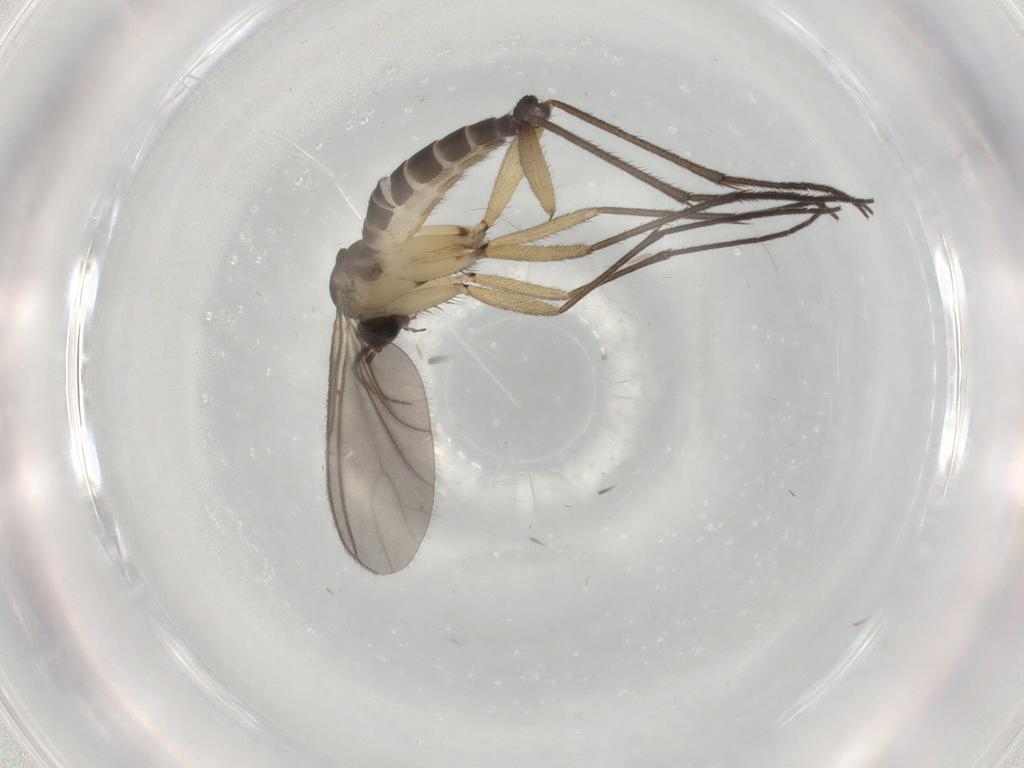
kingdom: Animalia
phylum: Arthropoda
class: Insecta
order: Diptera
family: Sciaridae
